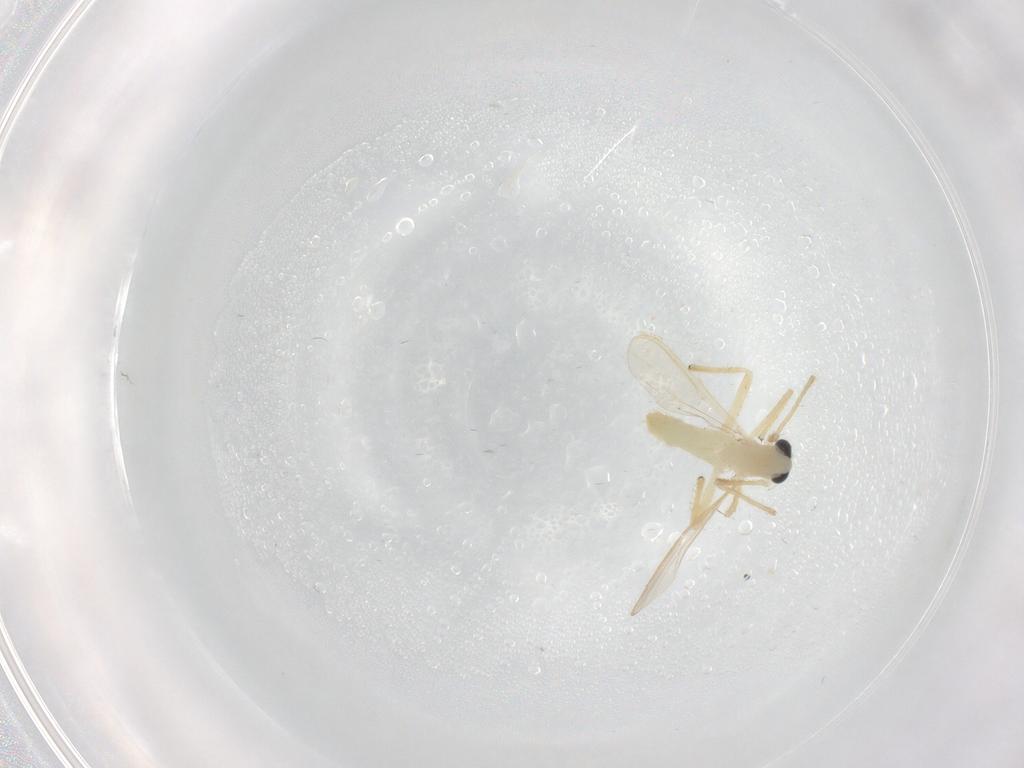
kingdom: Animalia
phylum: Arthropoda
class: Insecta
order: Diptera
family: Chironomidae
